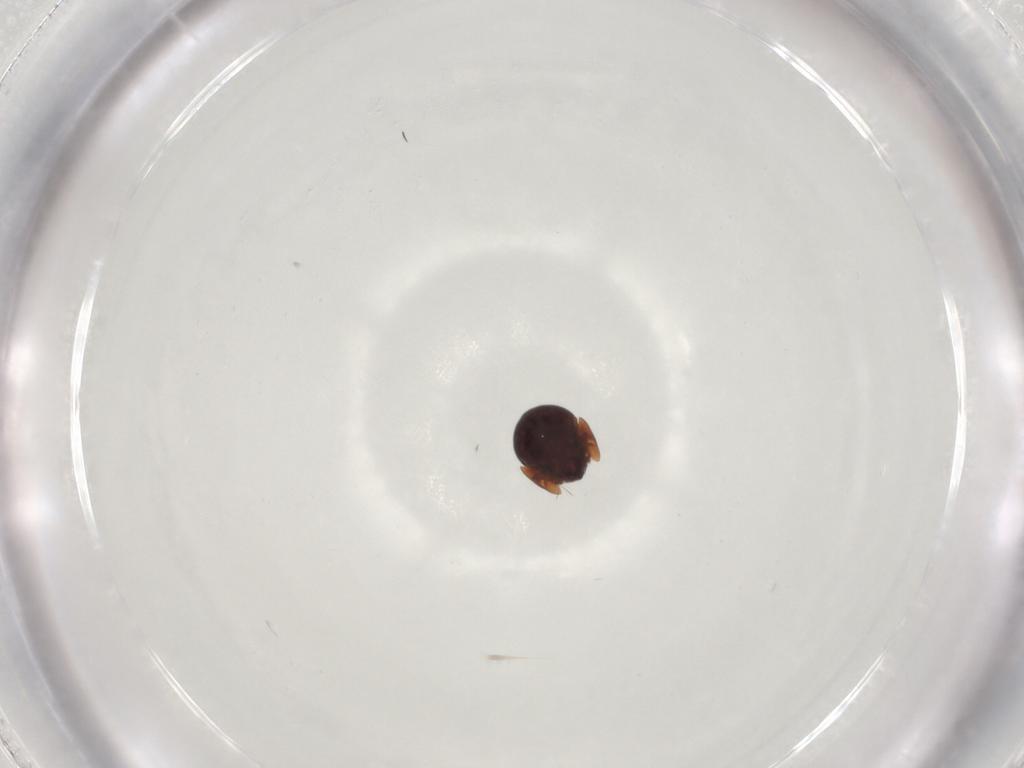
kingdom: Animalia
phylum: Arthropoda
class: Arachnida
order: Sarcoptiformes
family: Galumnidae
